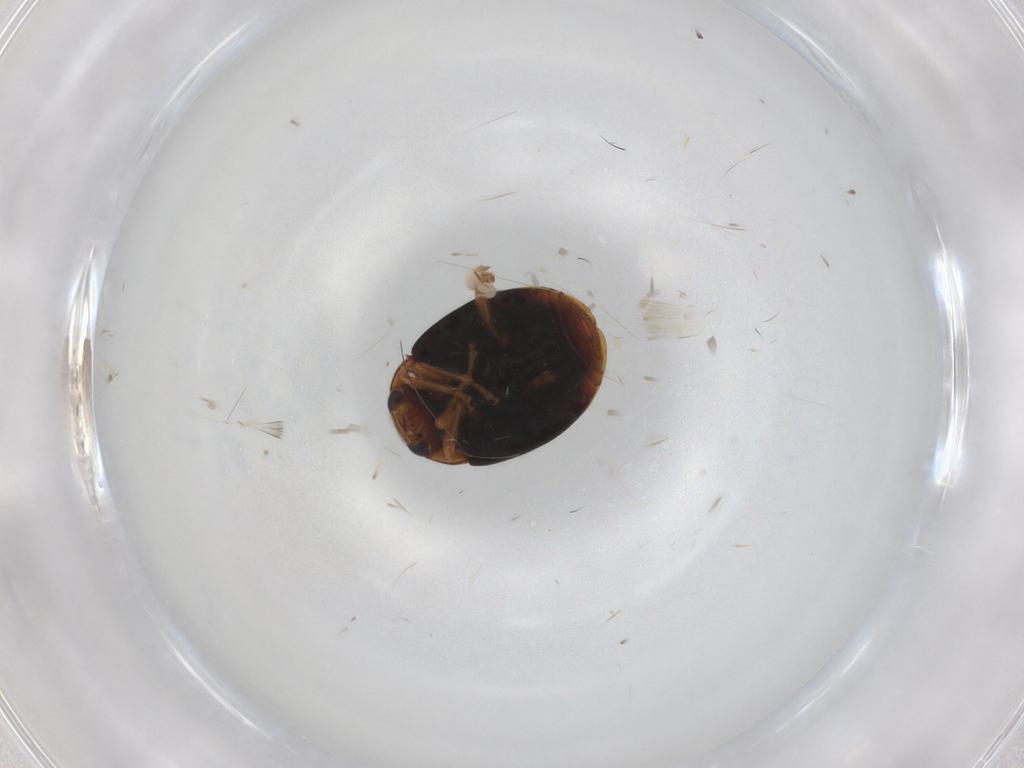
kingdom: Animalia
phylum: Arthropoda
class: Insecta
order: Coleoptera
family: Coccinellidae
